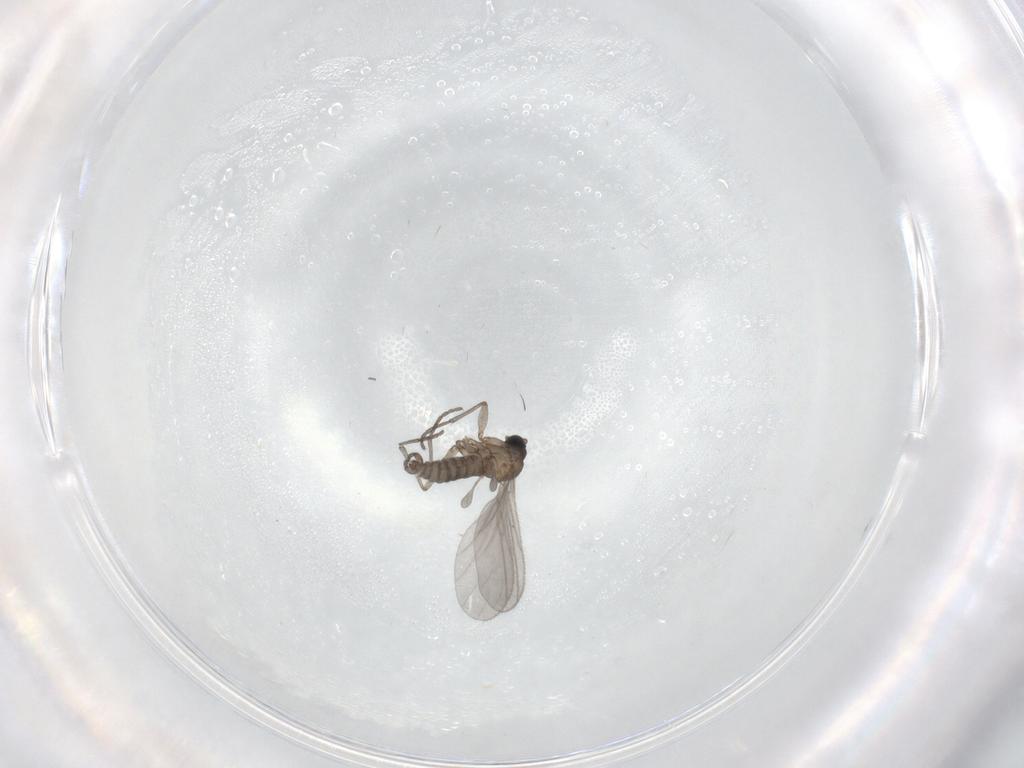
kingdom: Animalia
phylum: Arthropoda
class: Insecta
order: Diptera
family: Sciaridae
